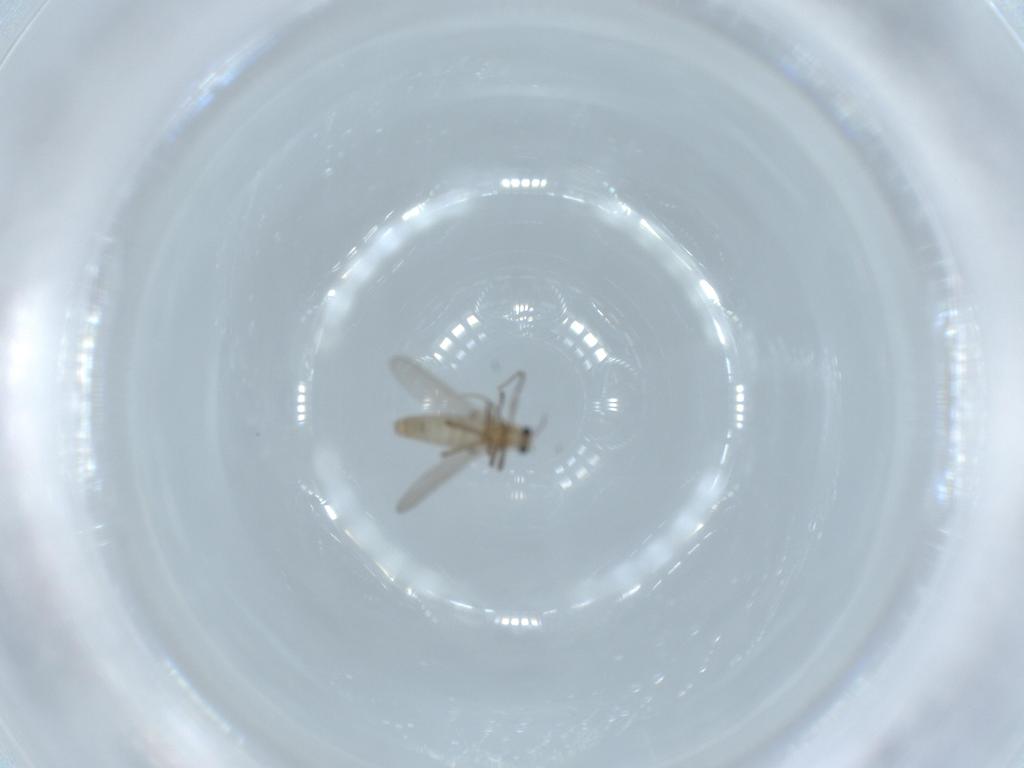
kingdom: Animalia
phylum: Arthropoda
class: Insecta
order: Diptera
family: Chironomidae
